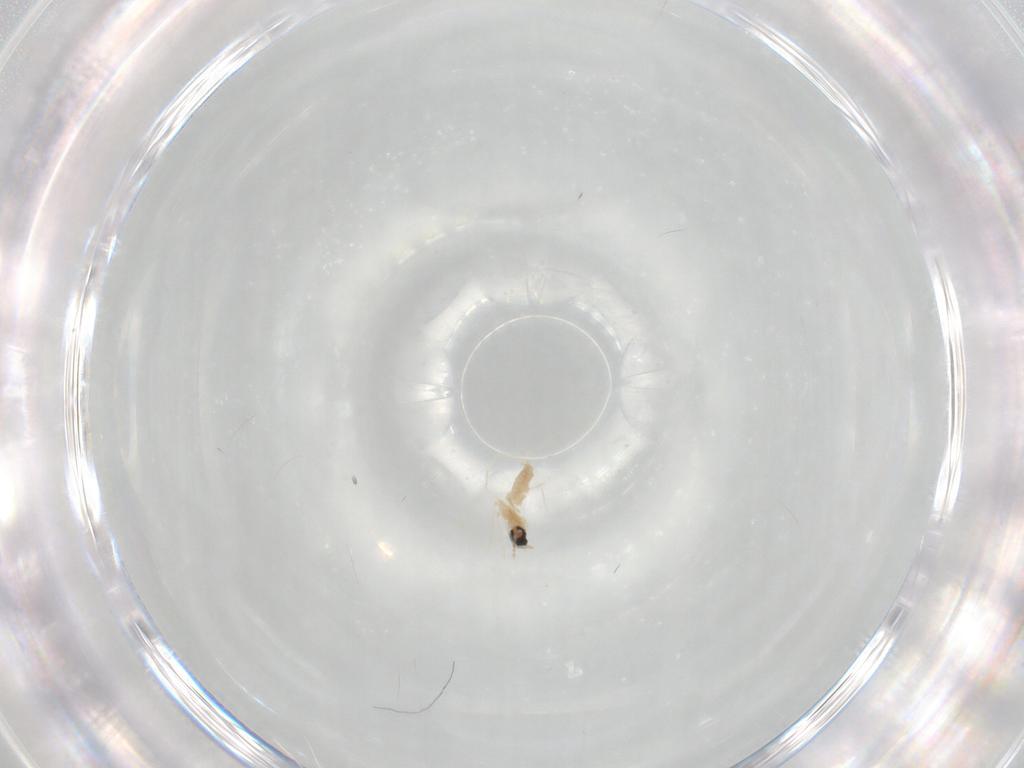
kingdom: Animalia
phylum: Arthropoda
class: Insecta
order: Diptera
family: Cecidomyiidae
